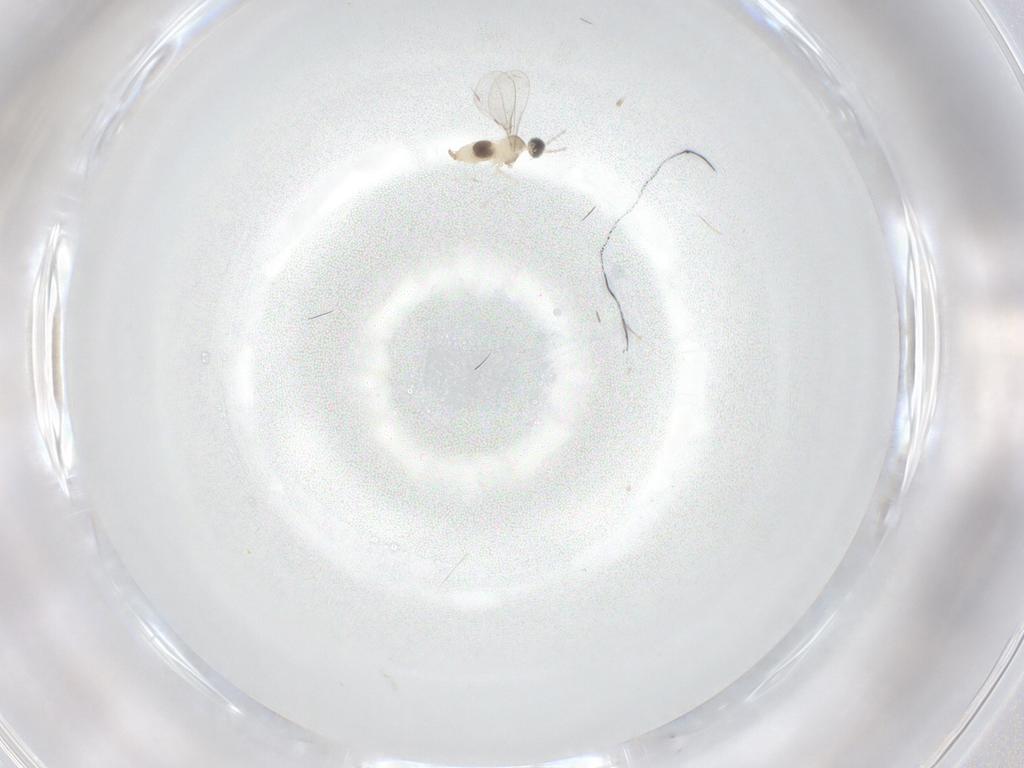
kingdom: Animalia
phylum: Arthropoda
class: Insecta
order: Diptera
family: Cecidomyiidae
